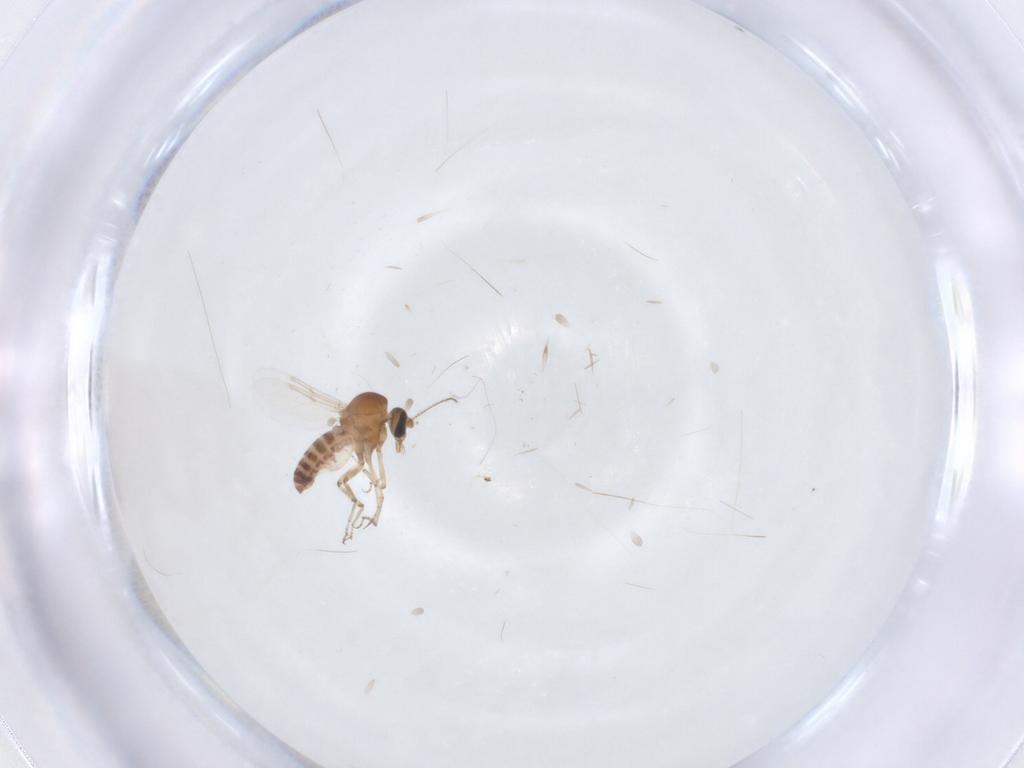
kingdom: Animalia
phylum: Arthropoda
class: Insecta
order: Diptera
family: Ceratopogonidae
